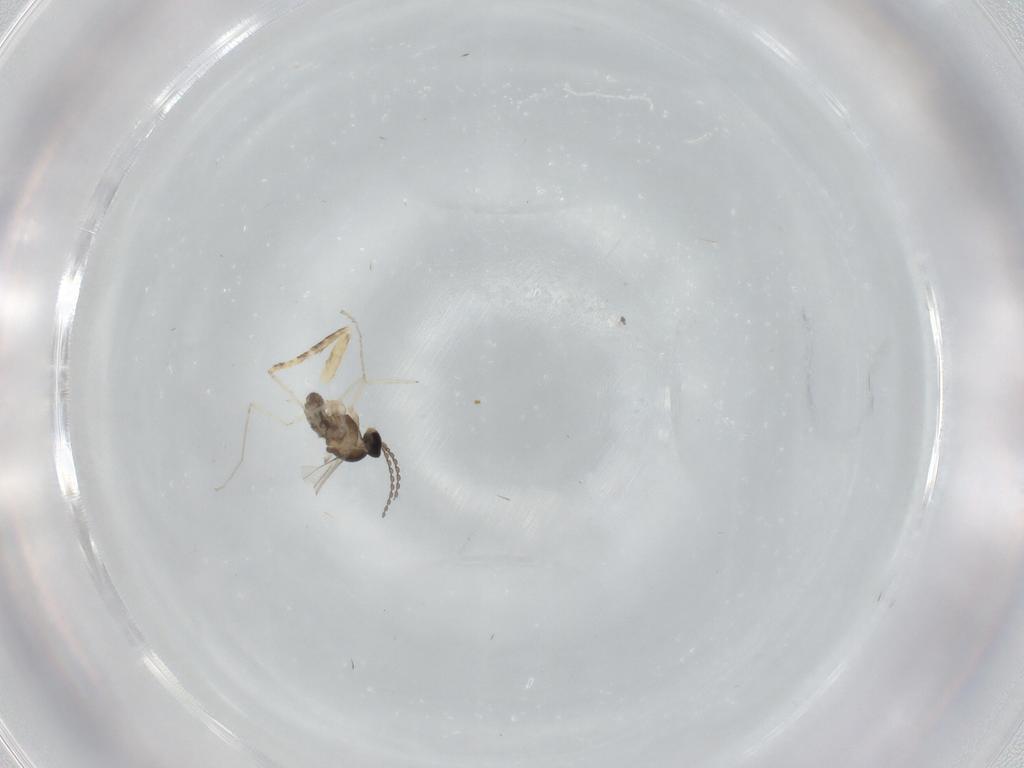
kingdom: Animalia
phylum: Arthropoda
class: Insecta
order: Diptera
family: Cecidomyiidae
